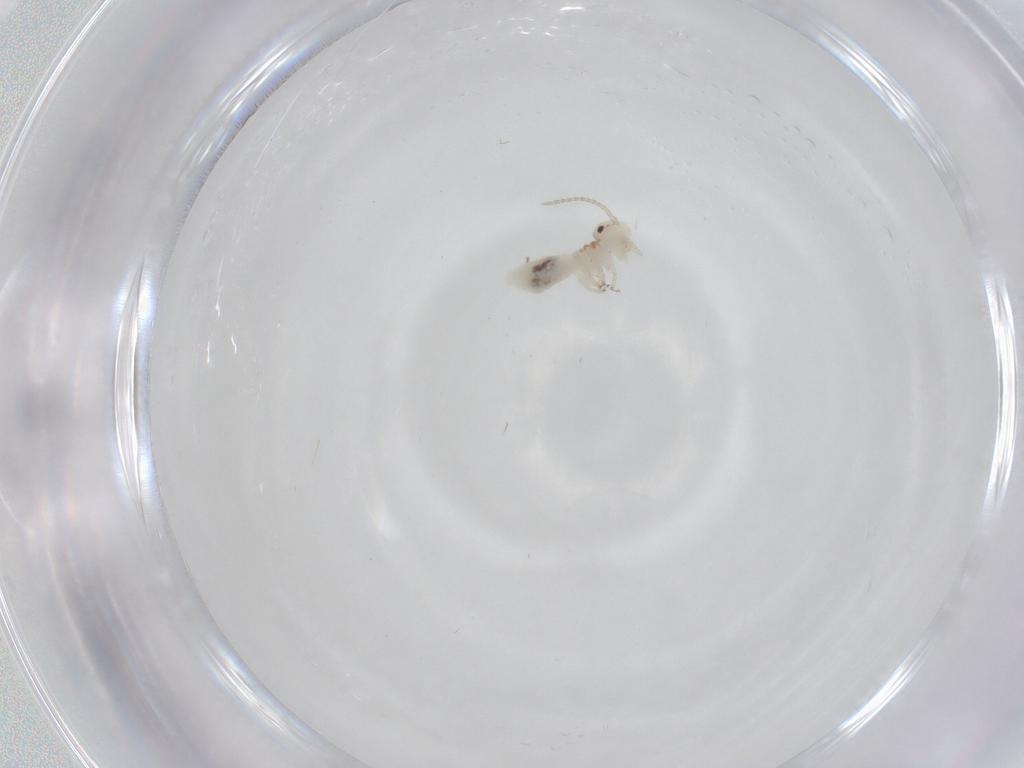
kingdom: Animalia
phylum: Arthropoda
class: Insecta
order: Psocodea
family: Amphipsocidae
